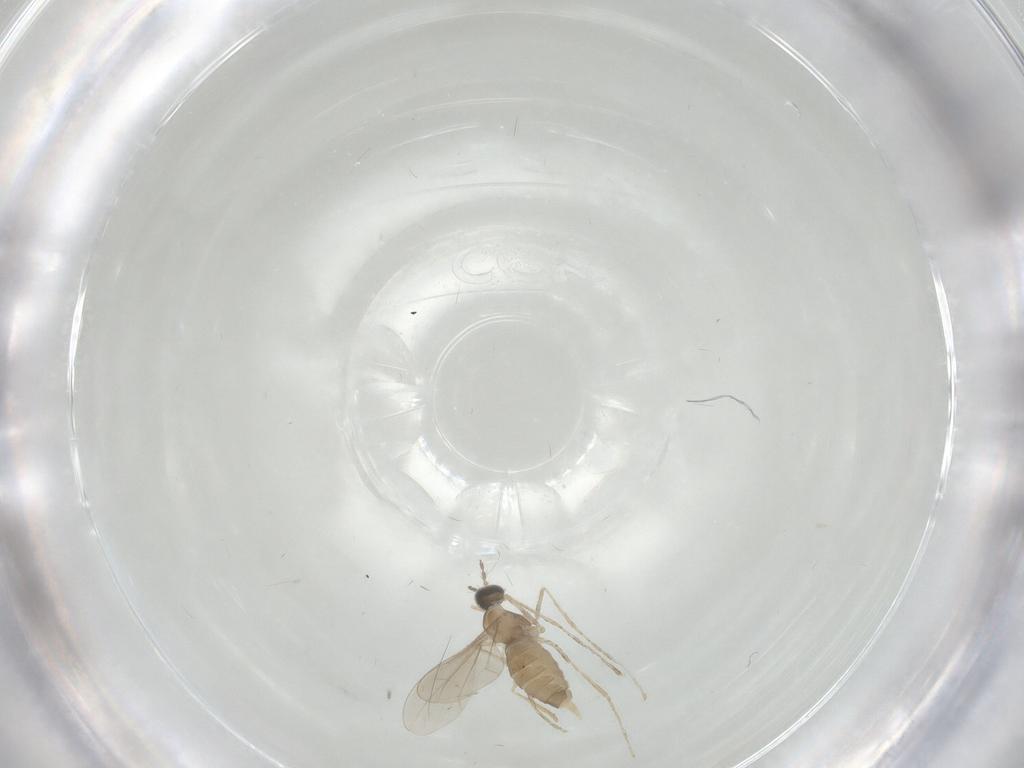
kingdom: Animalia
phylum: Arthropoda
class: Insecta
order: Diptera
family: Cecidomyiidae
